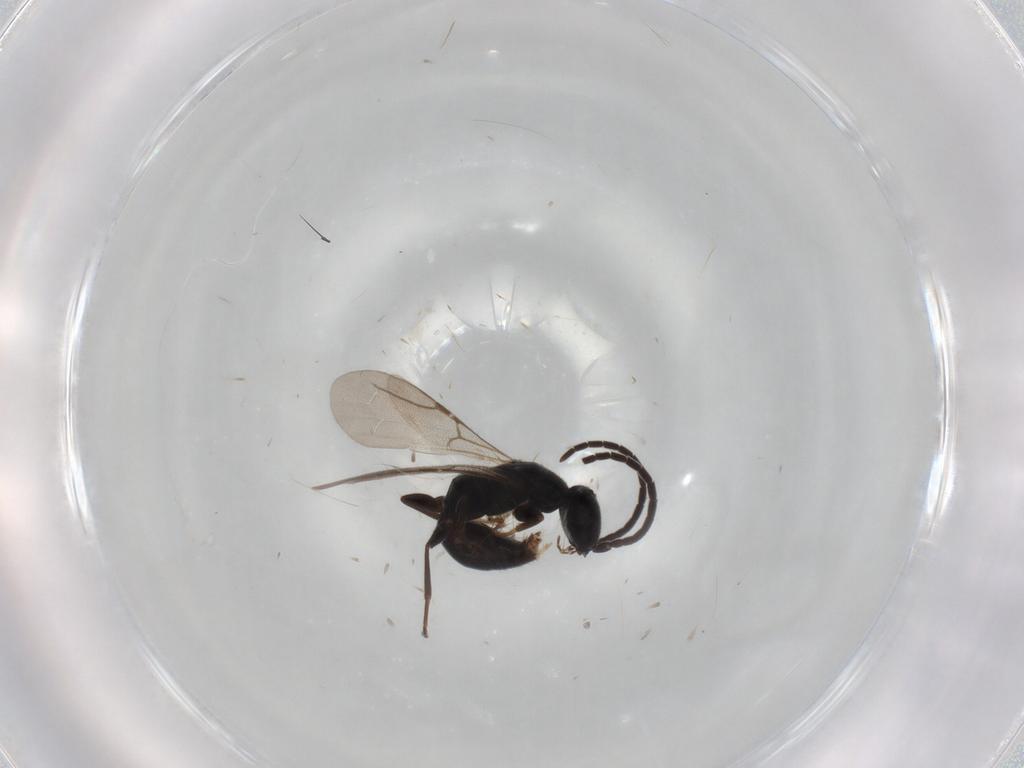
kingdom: Animalia
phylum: Arthropoda
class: Insecta
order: Hymenoptera
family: Bethylidae
